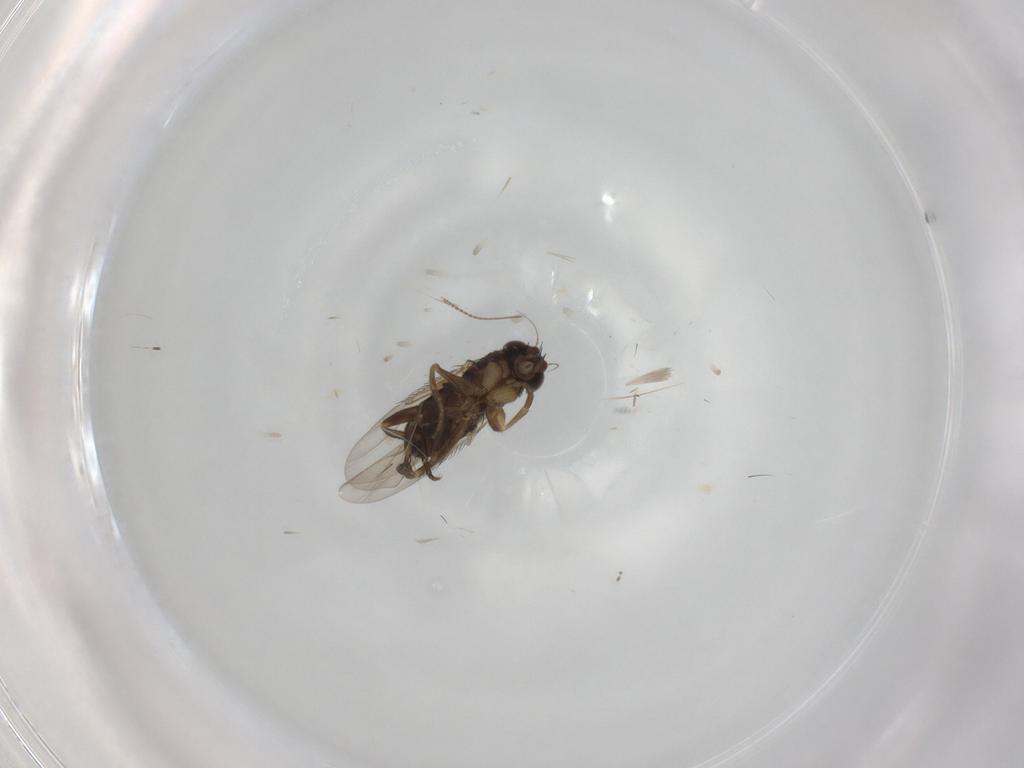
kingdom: Animalia
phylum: Arthropoda
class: Insecta
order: Diptera
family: Phoridae
